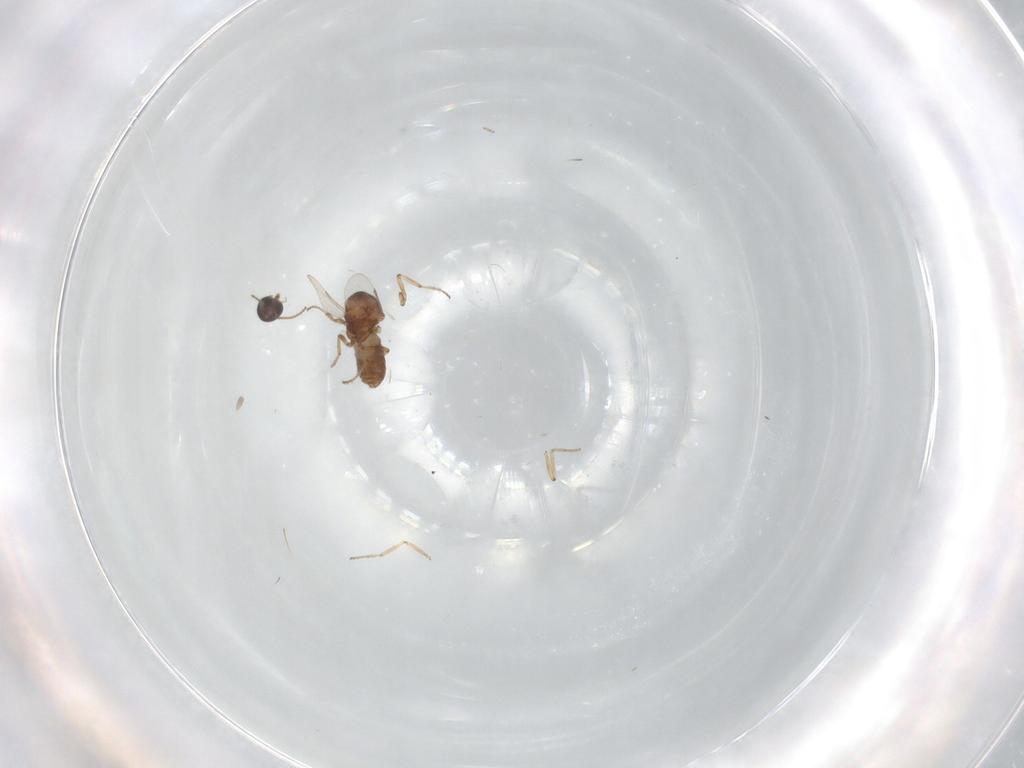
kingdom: Animalia
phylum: Arthropoda
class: Insecta
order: Diptera
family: Ceratopogonidae
